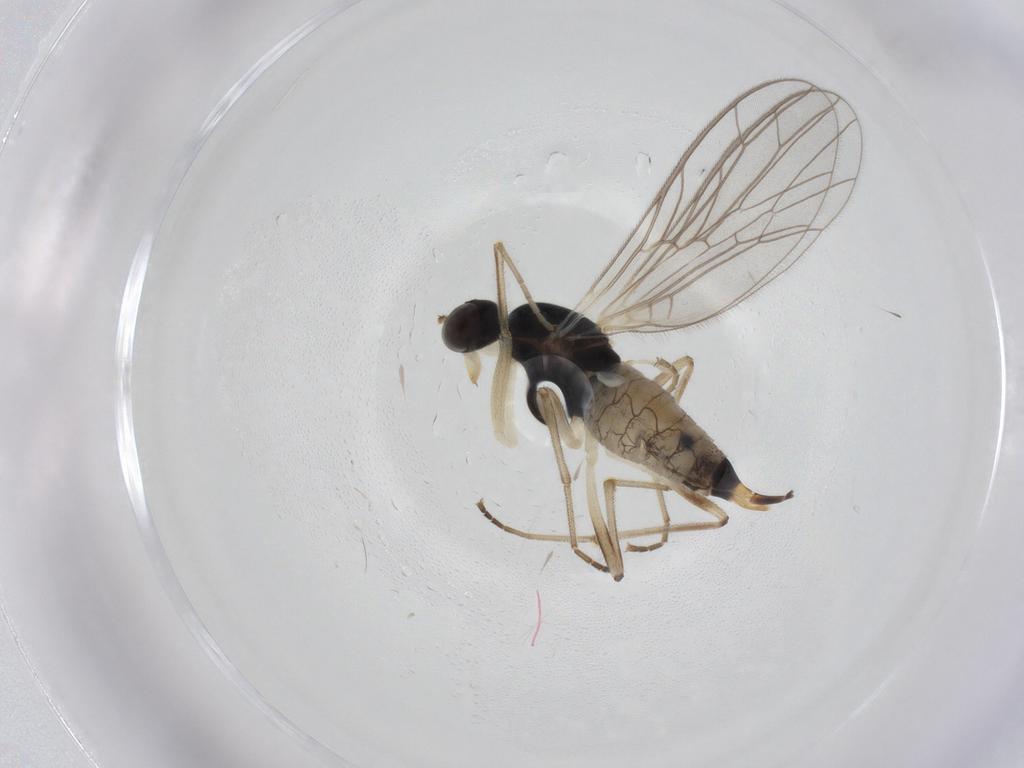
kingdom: Animalia
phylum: Arthropoda
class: Insecta
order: Diptera
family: Empididae
